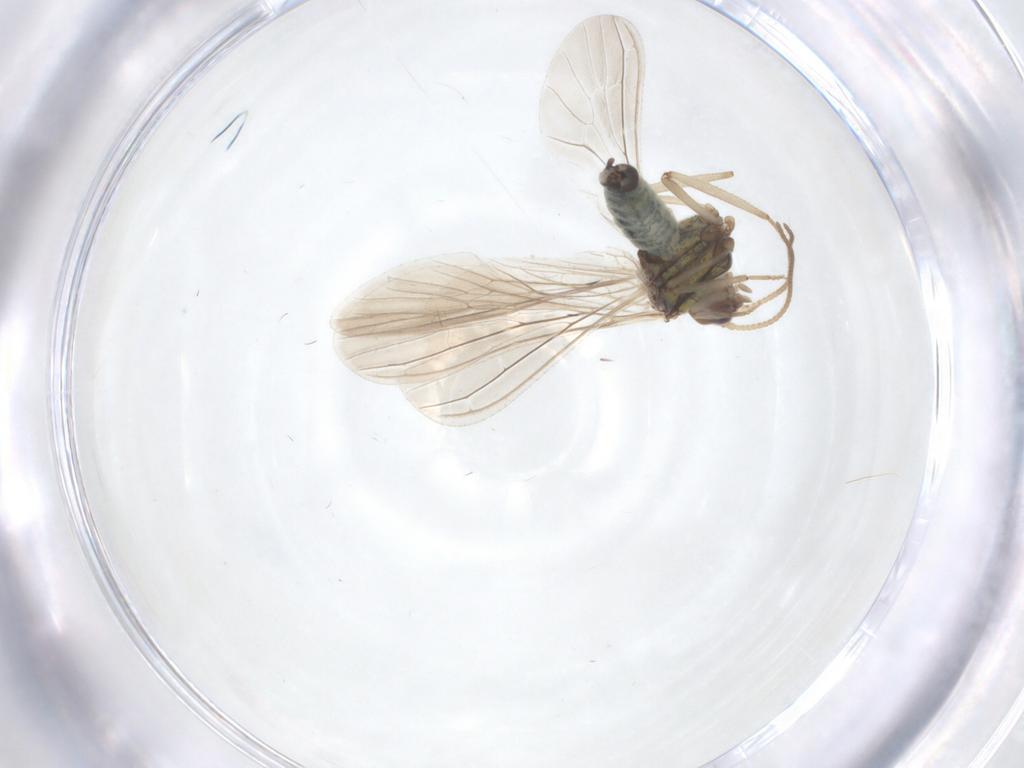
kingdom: Animalia
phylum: Arthropoda
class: Insecta
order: Neuroptera
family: Coniopterygidae
